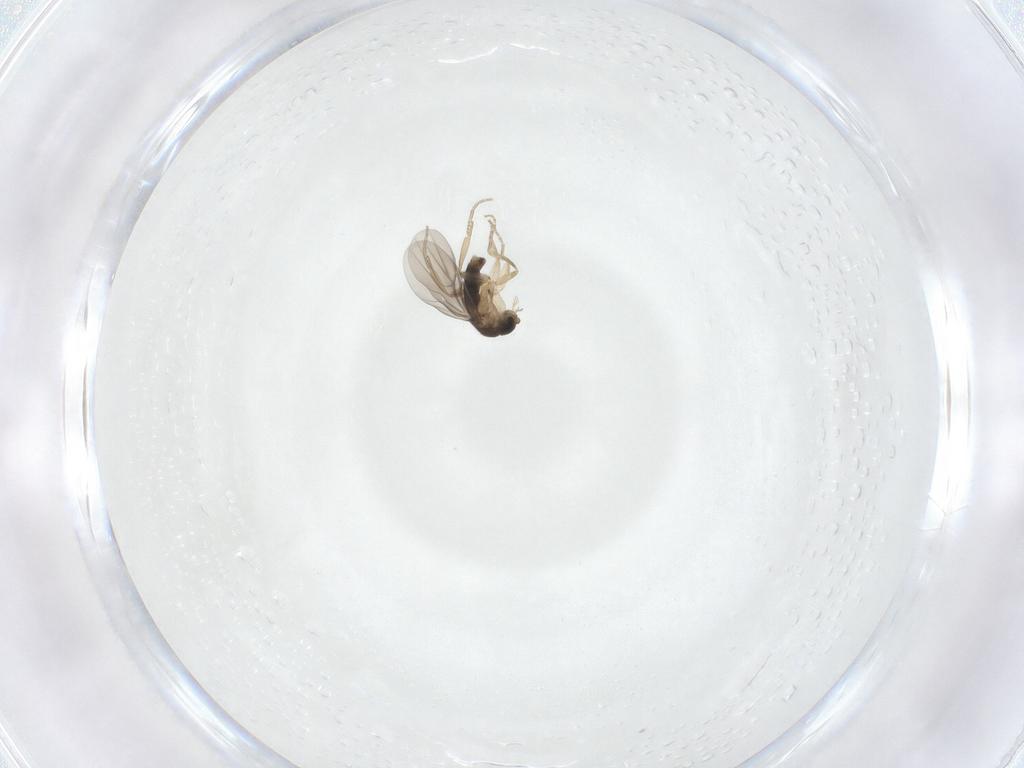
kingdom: Animalia
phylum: Arthropoda
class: Insecta
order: Diptera
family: Phoridae
